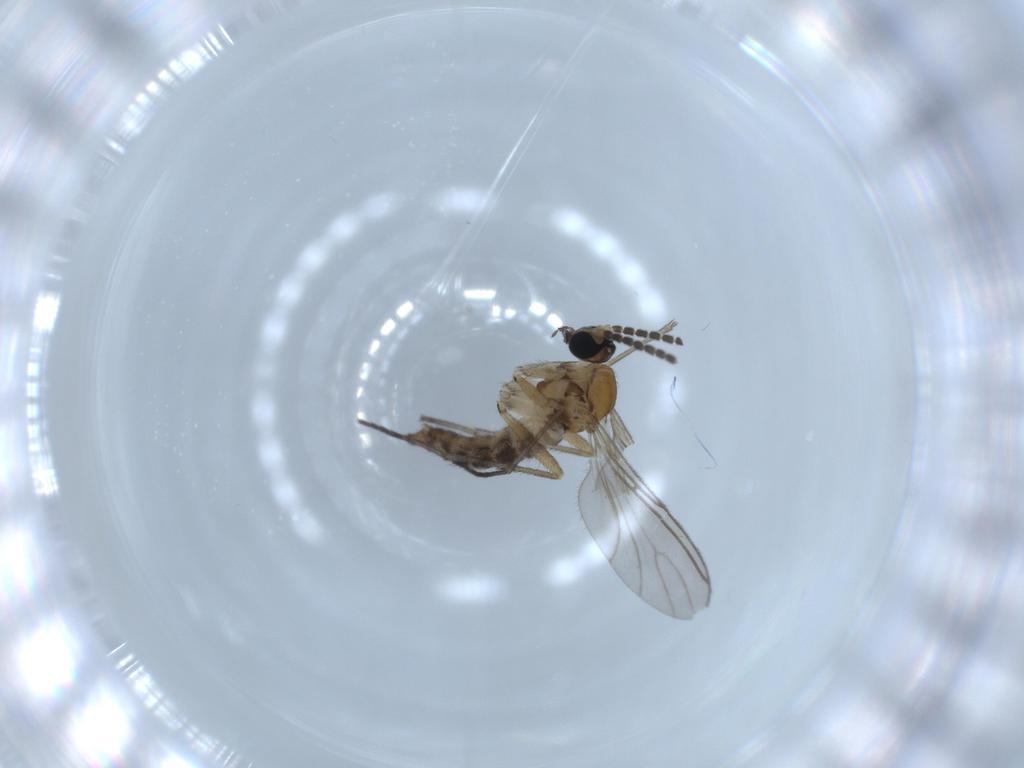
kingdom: Animalia
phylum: Arthropoda
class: Insecta
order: Diptera
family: Sciaridae
